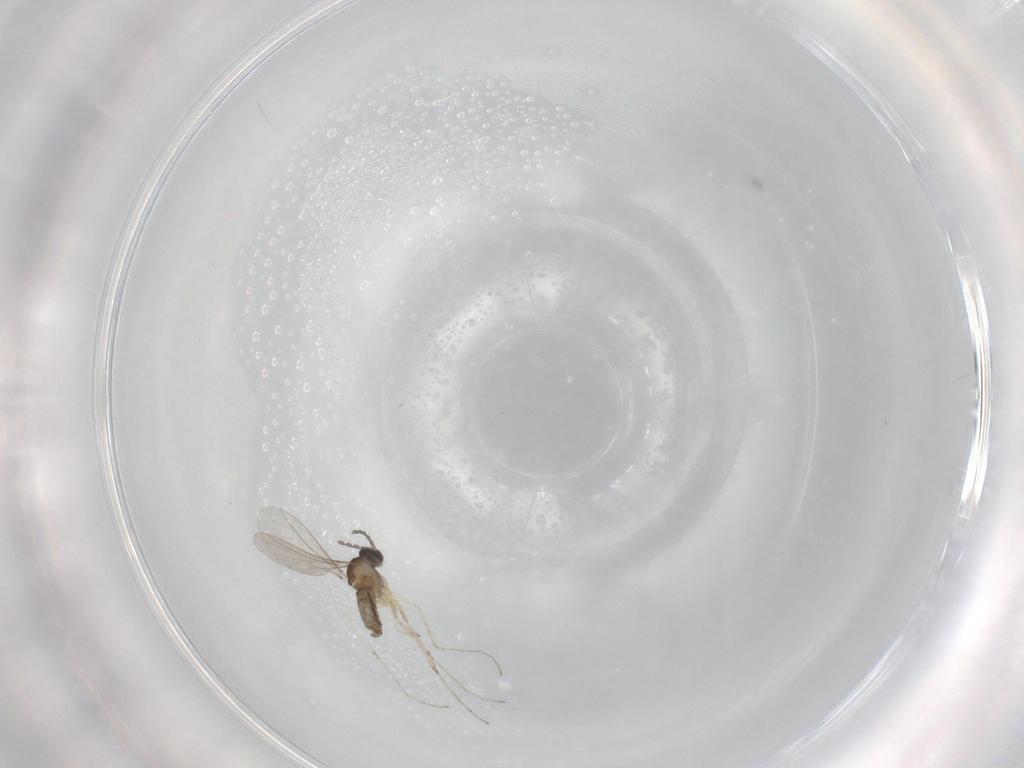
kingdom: Animalia
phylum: Arthropoda
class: Insecta
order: Diptera
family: Cecidomyiidae
